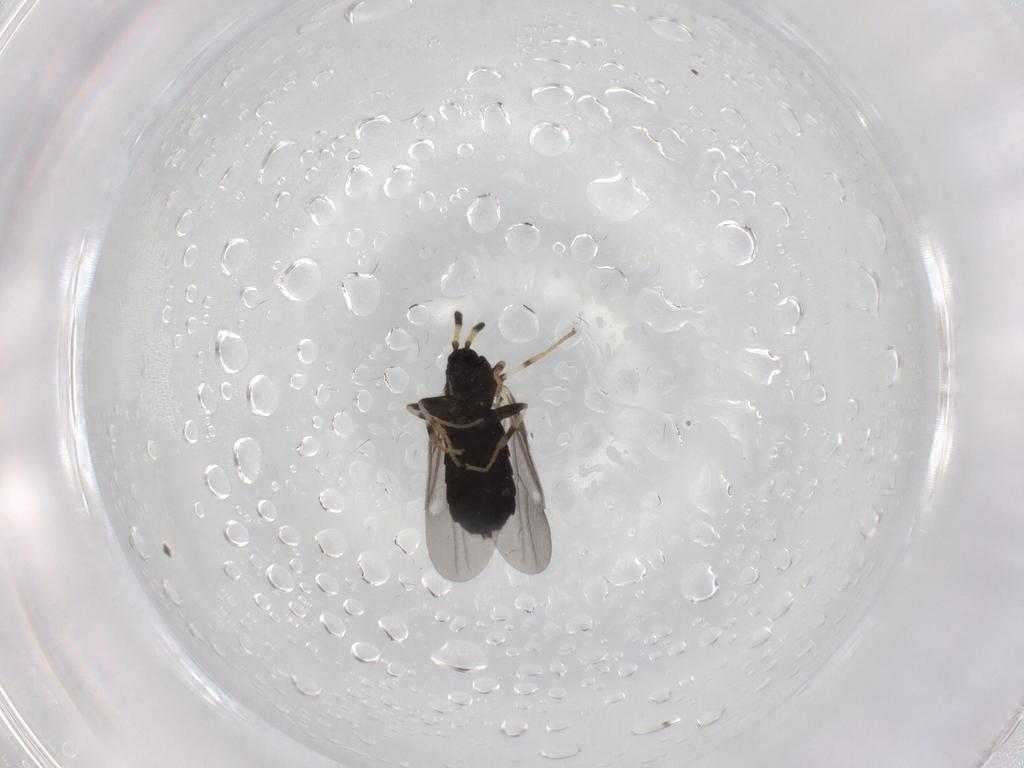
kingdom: Animalia
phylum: Arthropoda
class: Insecta
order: Diptera
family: Scatopsidae
